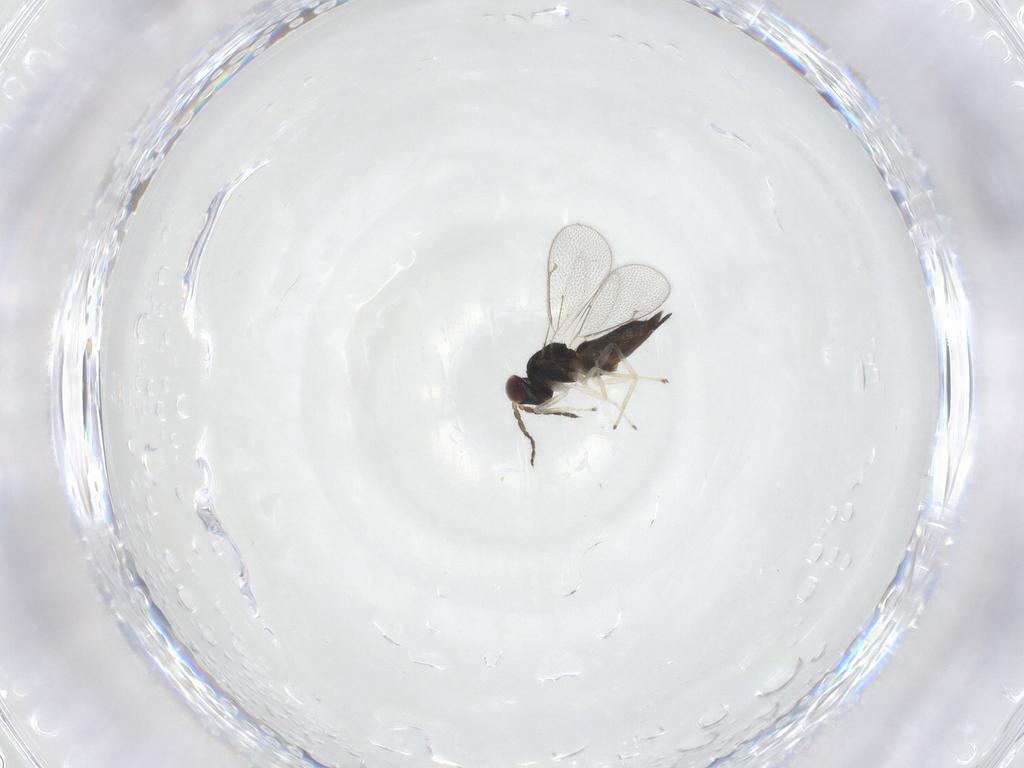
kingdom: Animalia
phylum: Arthropoda
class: Insecta
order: Hymenoptera
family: Eulophidae
